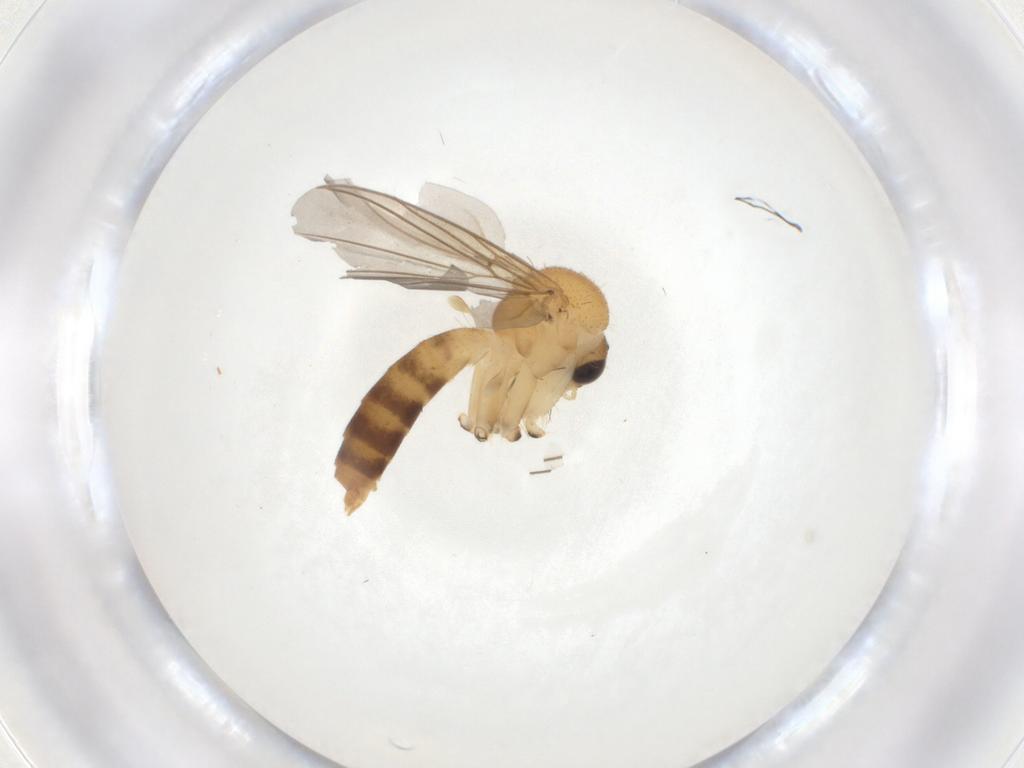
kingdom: Animalia
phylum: Arthropoda
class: Insecta
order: Diptera
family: Mycetophilidae
